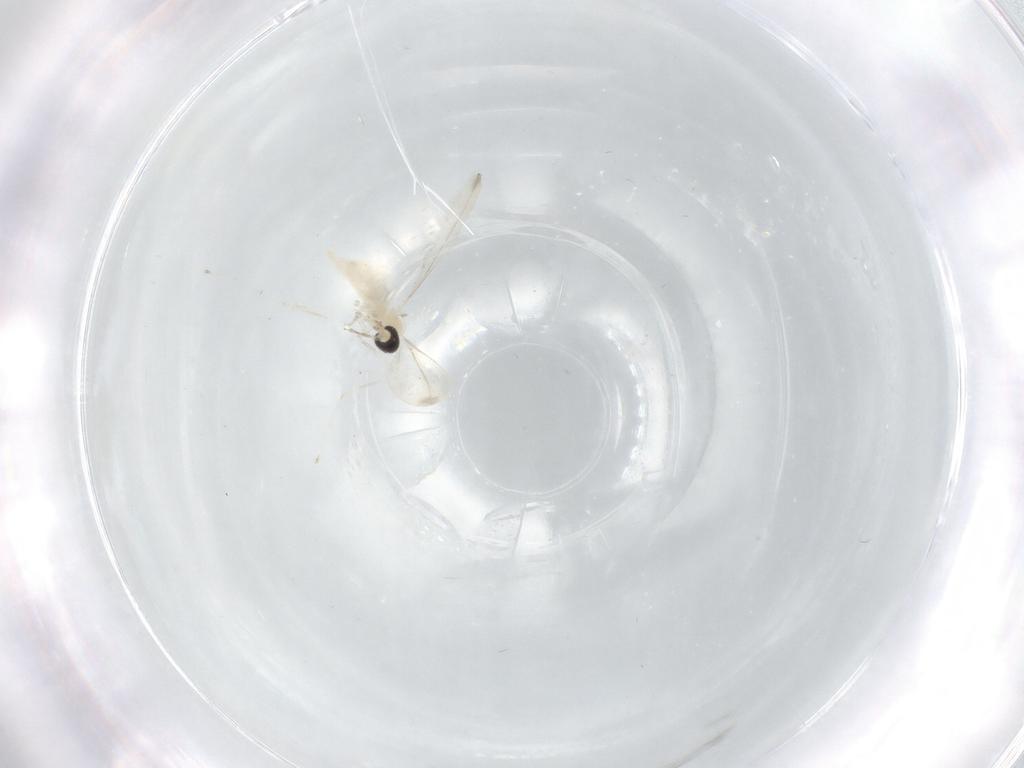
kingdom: Animalia
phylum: Arthropoda
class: Insecta
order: Diptera
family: Cecidomyiidae
